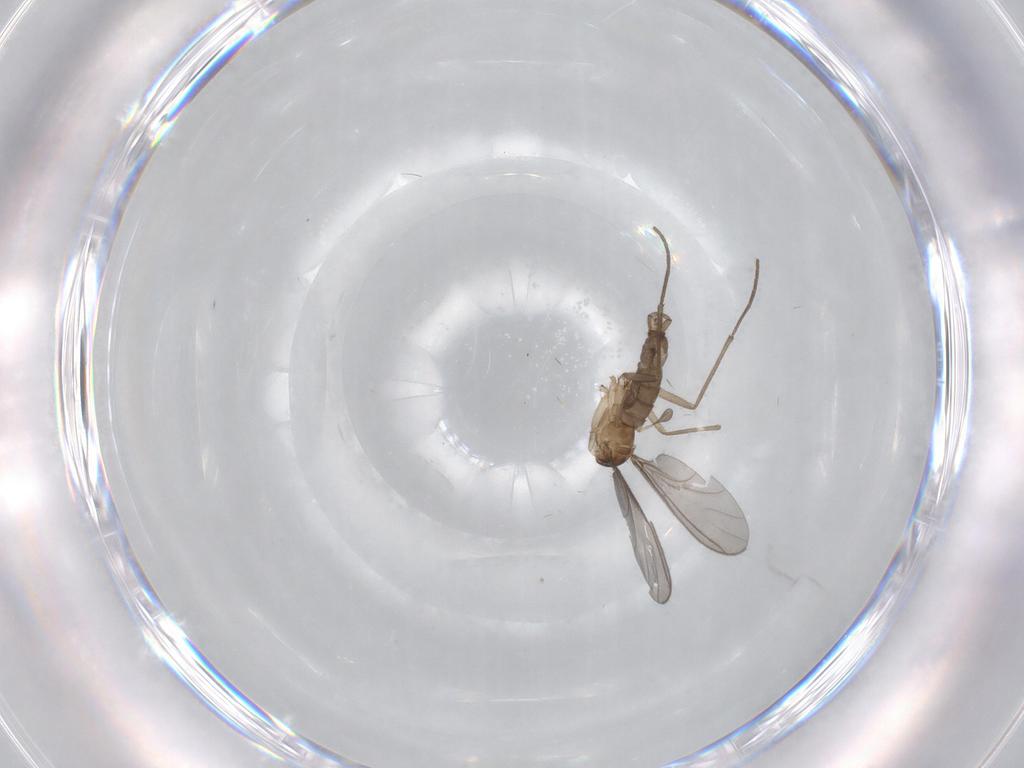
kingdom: Animalia
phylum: Arthropoda
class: Insecta
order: Diptera
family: Sciaridae
